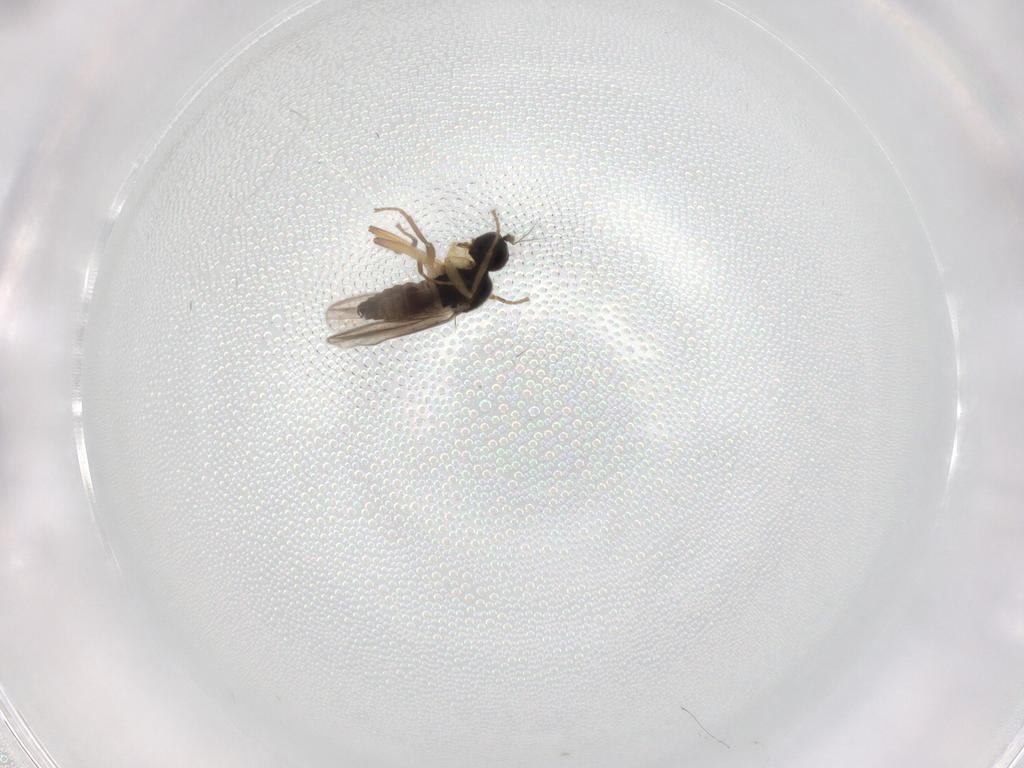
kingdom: Animalia
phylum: Arthropoda
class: Insecta
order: Diptera
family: Hybotidae
